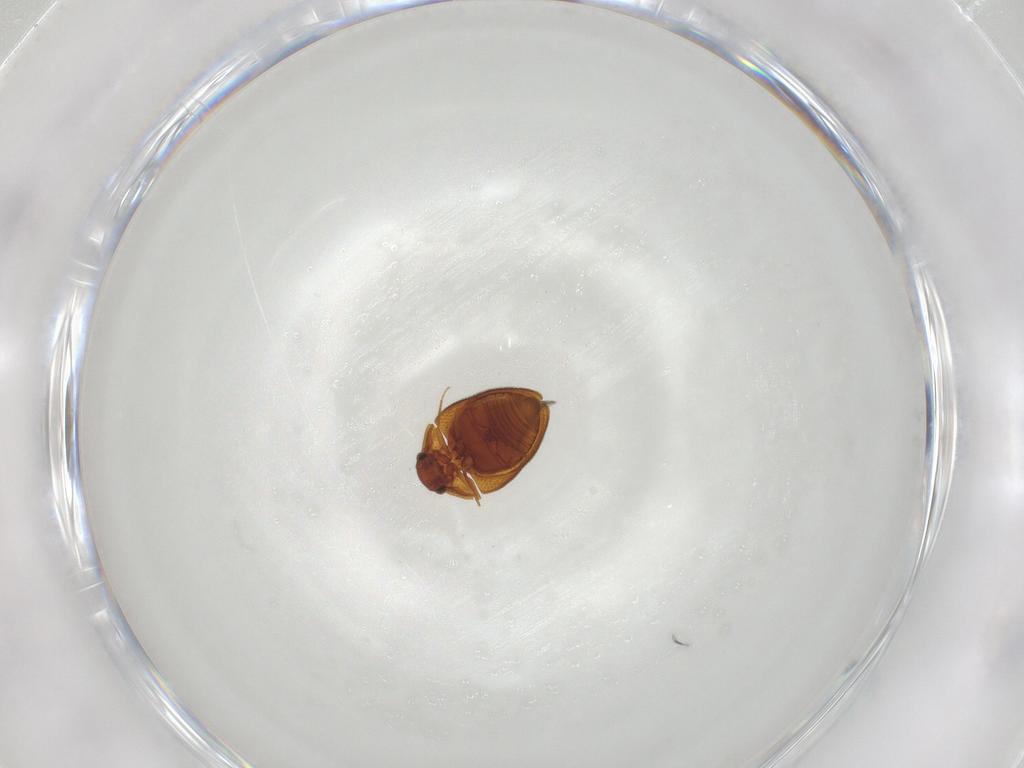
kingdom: Animalia
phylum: Arthropoda
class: Insecta
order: Coleoptera
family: Clambidae
